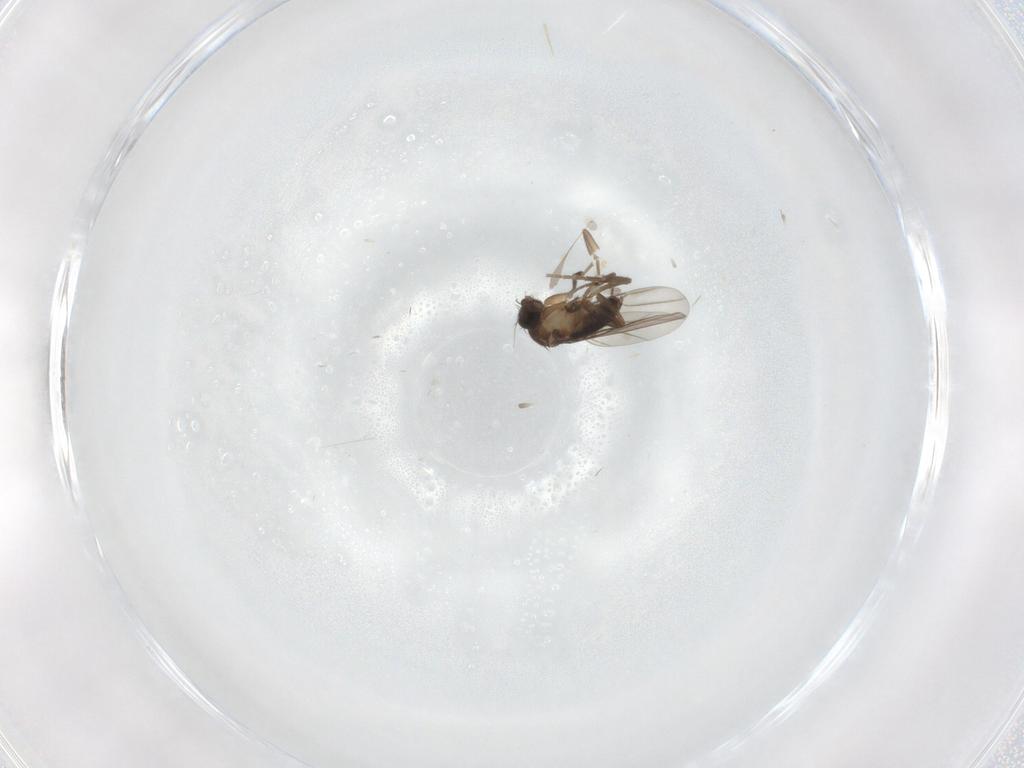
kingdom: Animalia
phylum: Arthropoda
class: Insecta
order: Diptera
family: Phoridae
